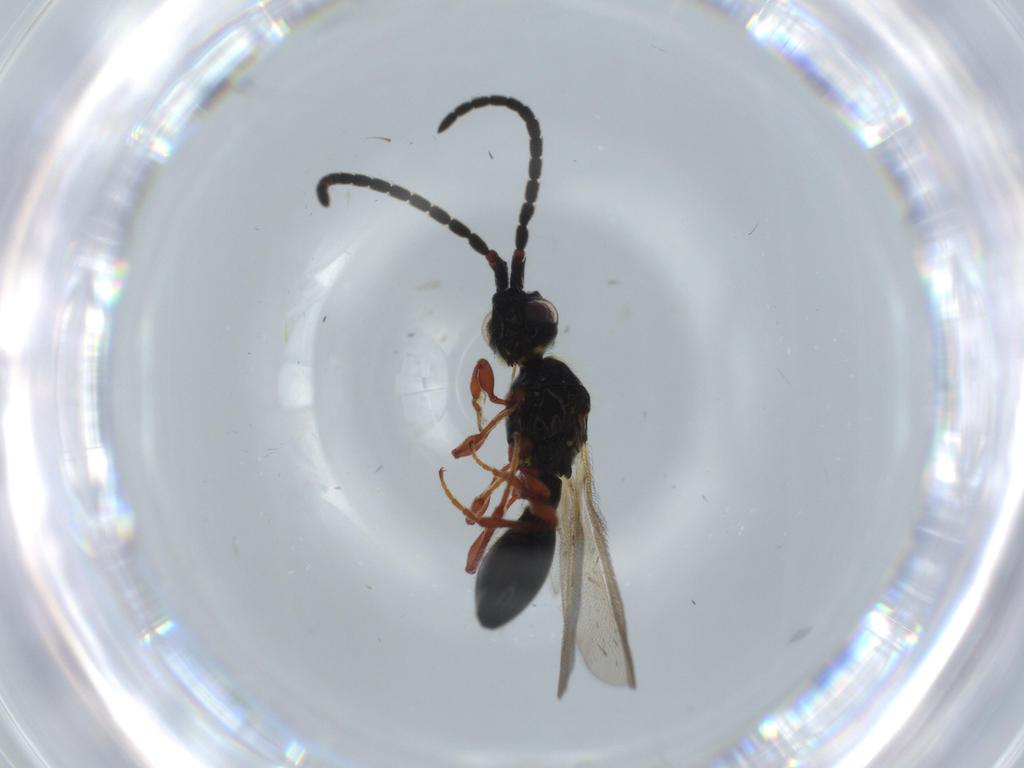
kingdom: Animalia
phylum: Arthropoda
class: Insecta
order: Hymenoptera
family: Diapriidae
